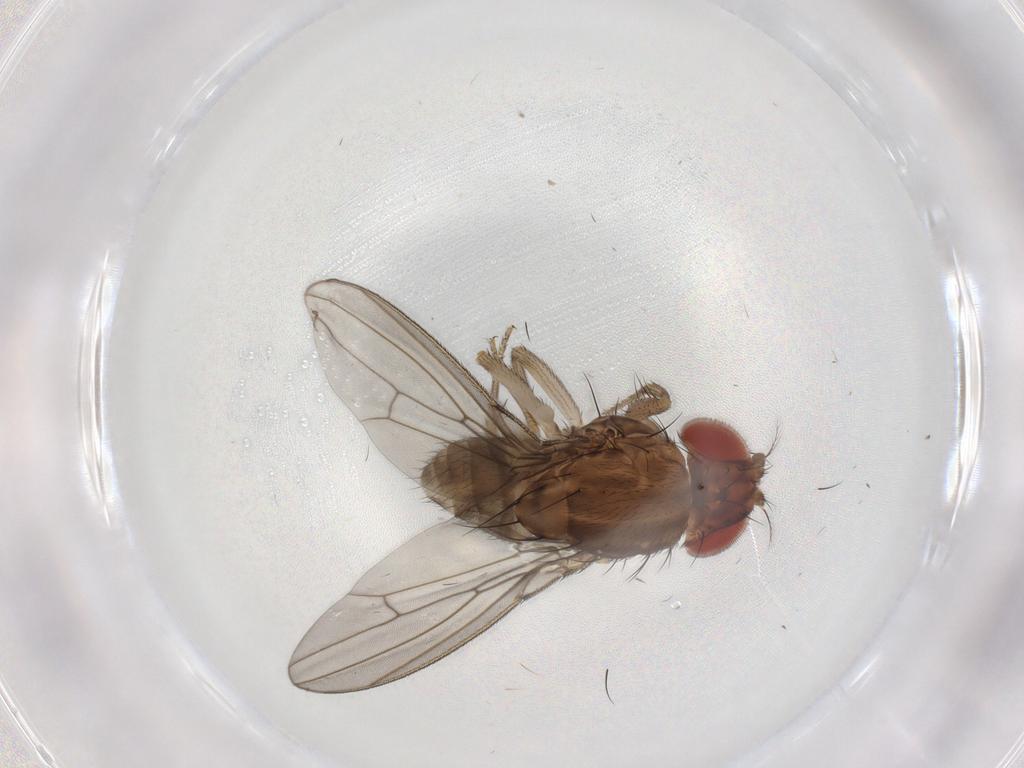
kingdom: Animalia
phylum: Arthropoda
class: Insecta
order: Diptera
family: Drosophilidae
